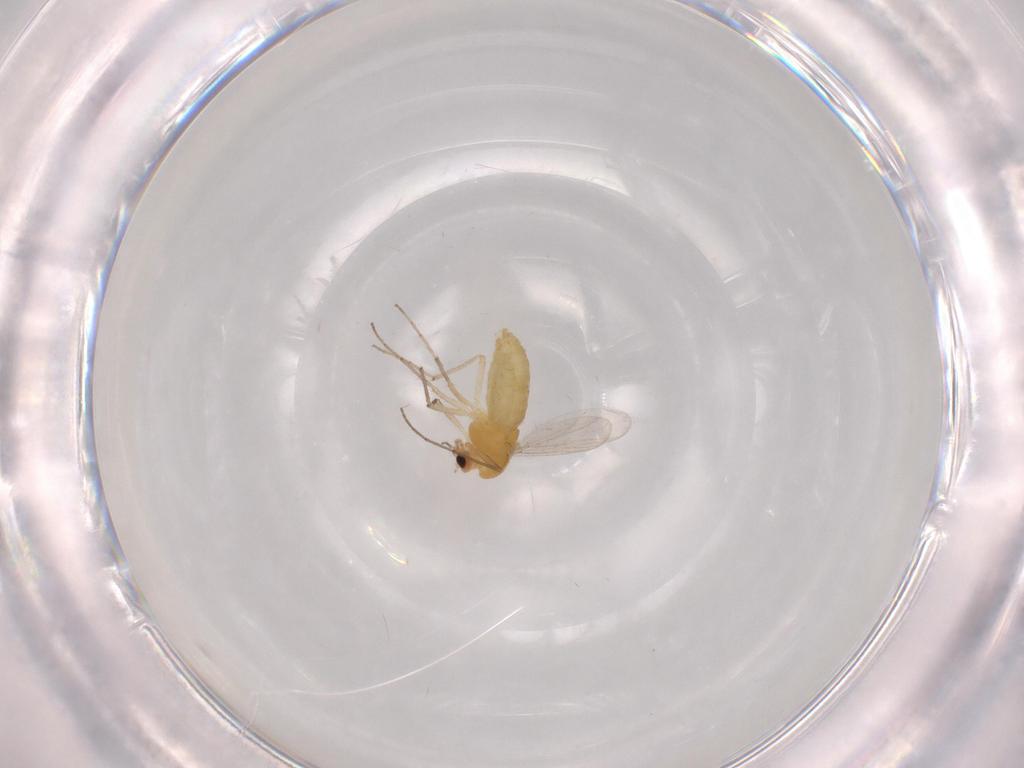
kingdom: Animalia
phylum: Arthropoda
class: Insecta
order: Diptera
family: Chironomidae
